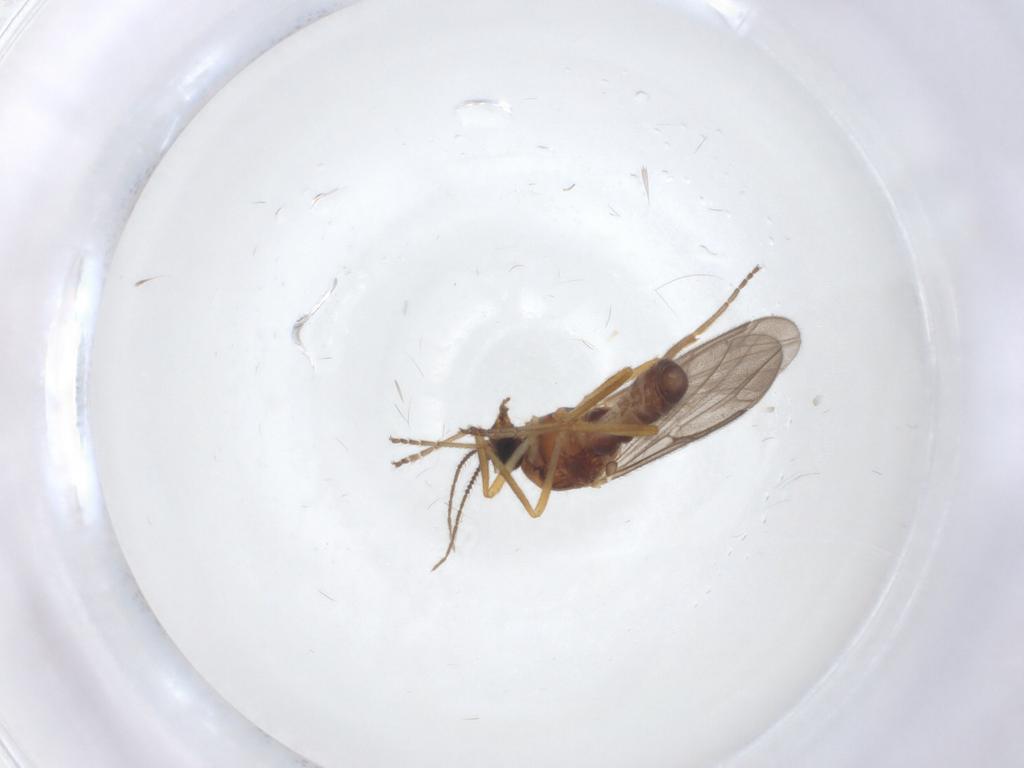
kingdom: Animalia
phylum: Arthropoda
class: Insecta
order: Diptera
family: Ceratopogonidae
